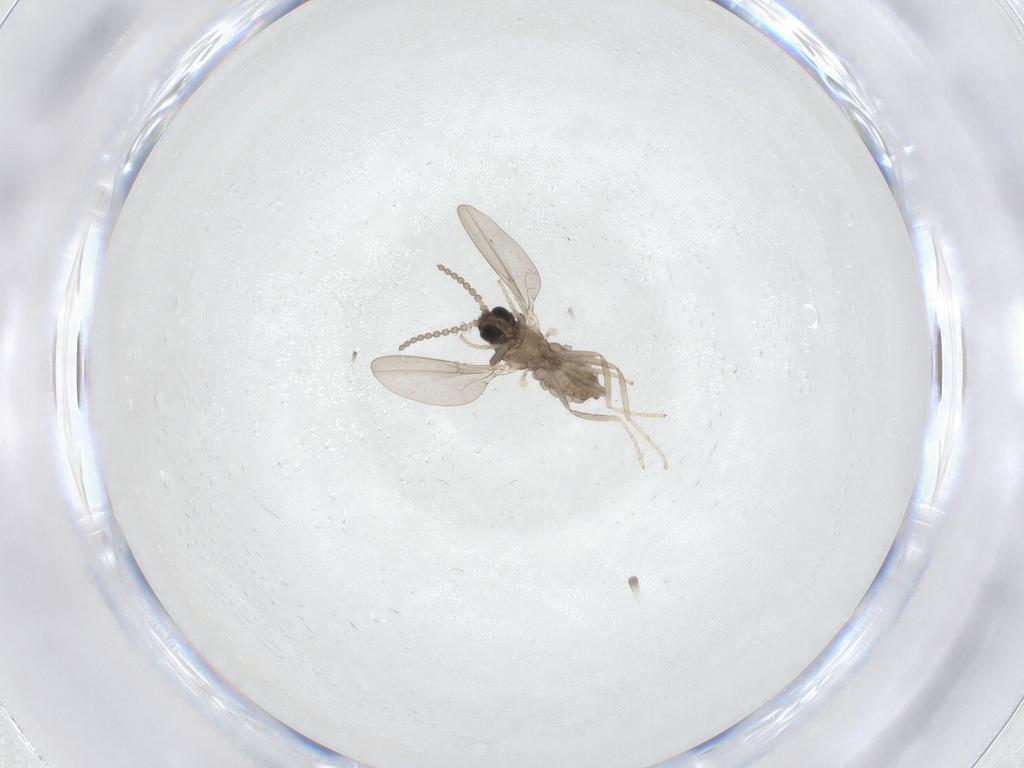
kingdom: Animalia
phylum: Arthropoda
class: Insecta
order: Diptera
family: Cecidomyiidae
